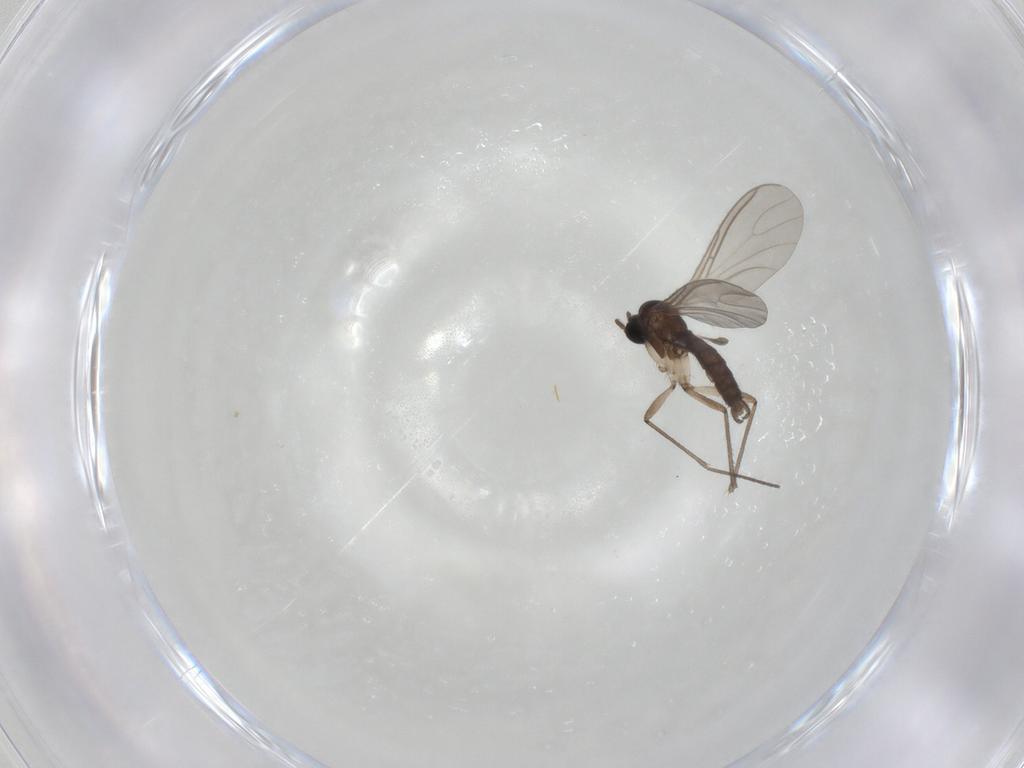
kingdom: Animalia
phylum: Arthropoda
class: Insecta
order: Diptera
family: Sciaridae
